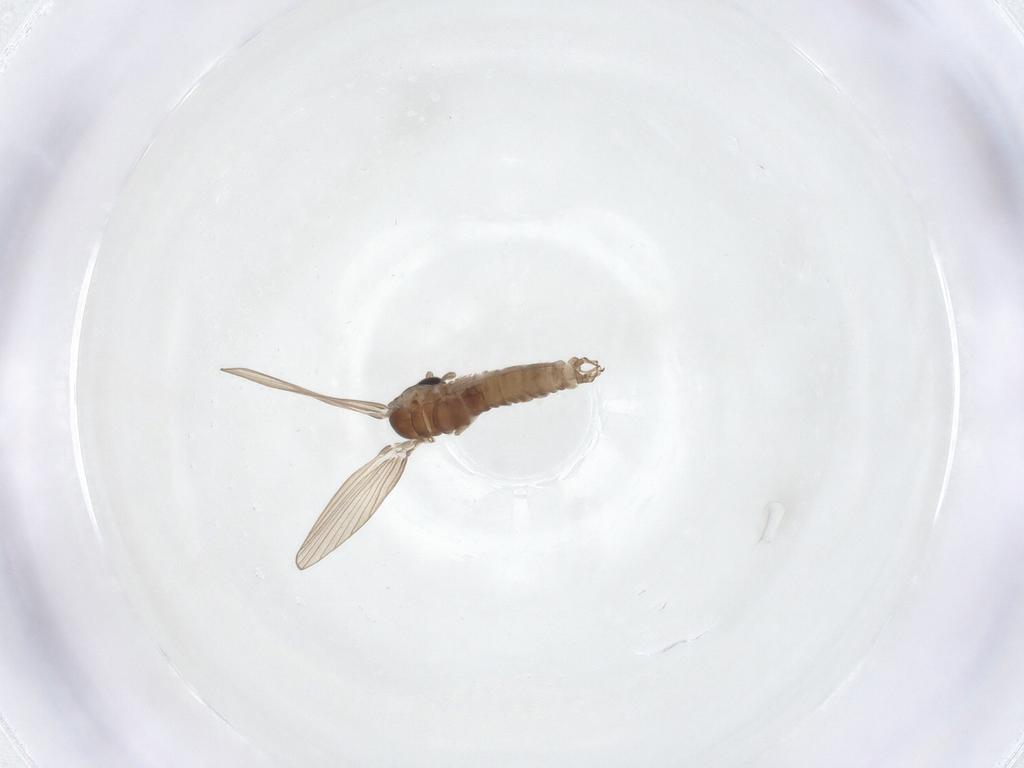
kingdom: Animalia
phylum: Arthropoda
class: Insecta
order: Diptera
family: Psychodidae
